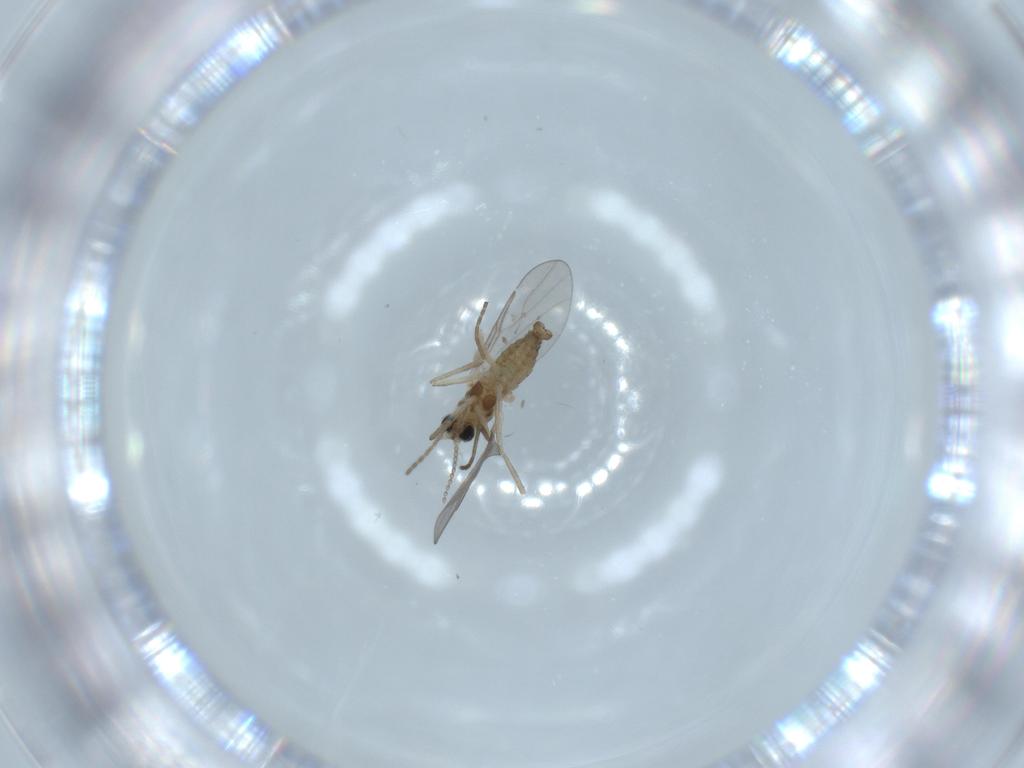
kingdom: Animalia
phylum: Arthropoda
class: Insecta
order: Diptera
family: Cecidomyiidae
